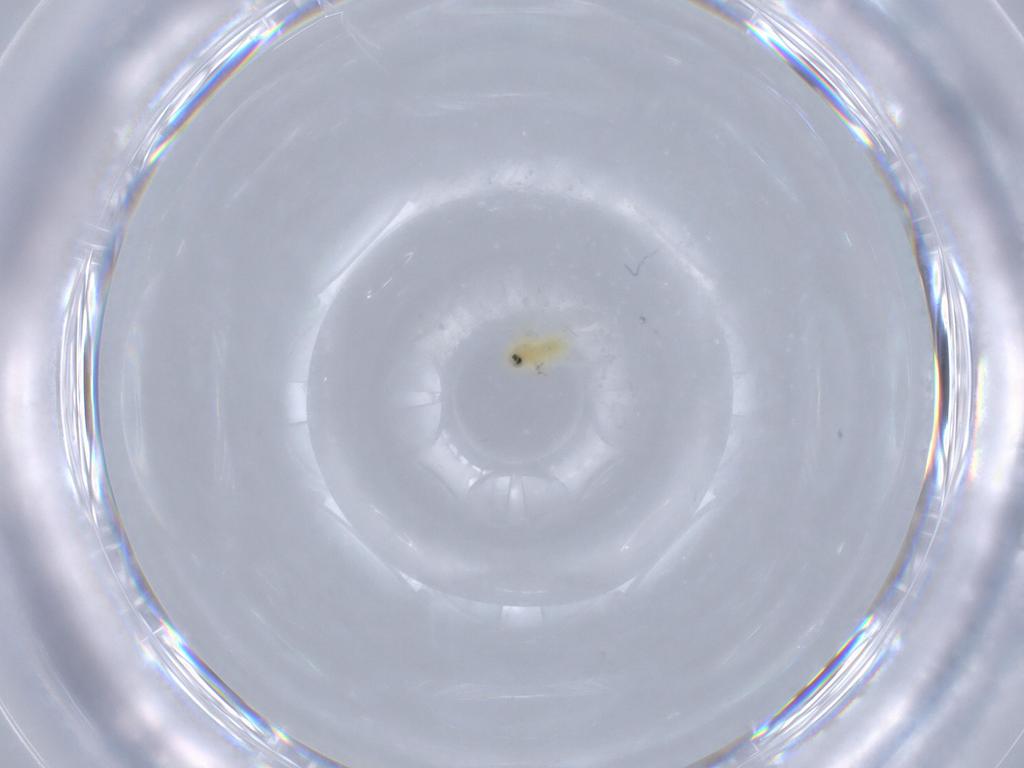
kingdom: Animalia
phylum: Arthropoda
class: Insecta
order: Hemiptera
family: Aleyrodidae
